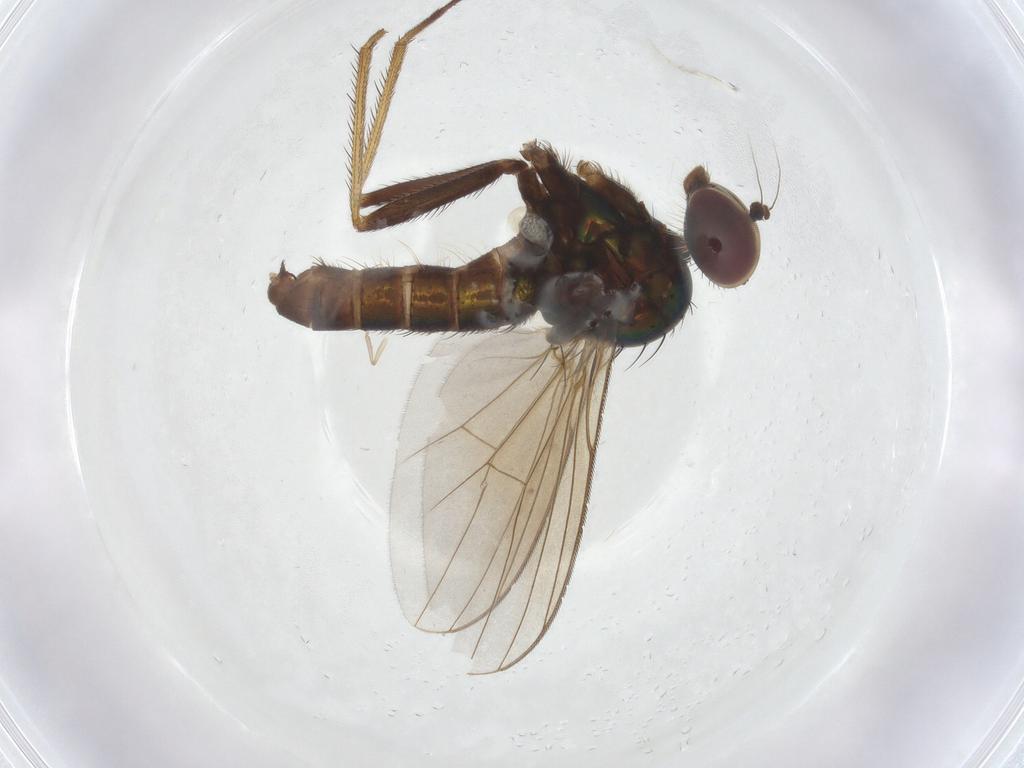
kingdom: Animalia
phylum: Arthropoda
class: Insecta
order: Diptera
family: Dolichopodidae
